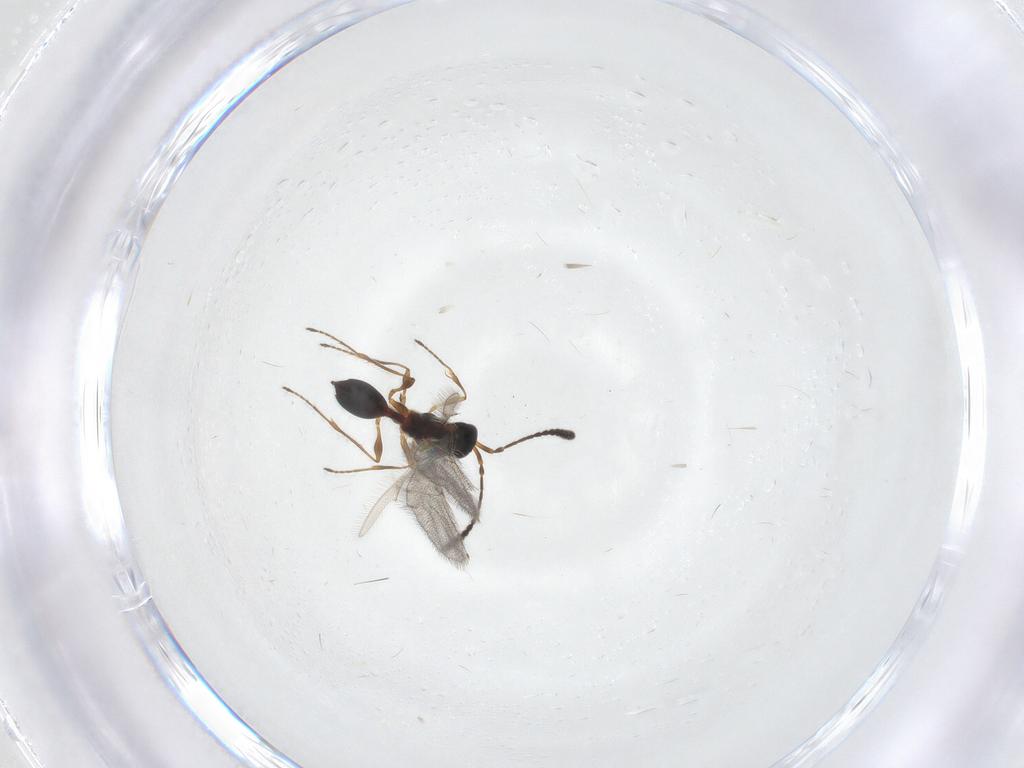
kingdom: Animalia
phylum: Arthropoda
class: Insecta
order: Hymenoptera
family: Diapriidae
